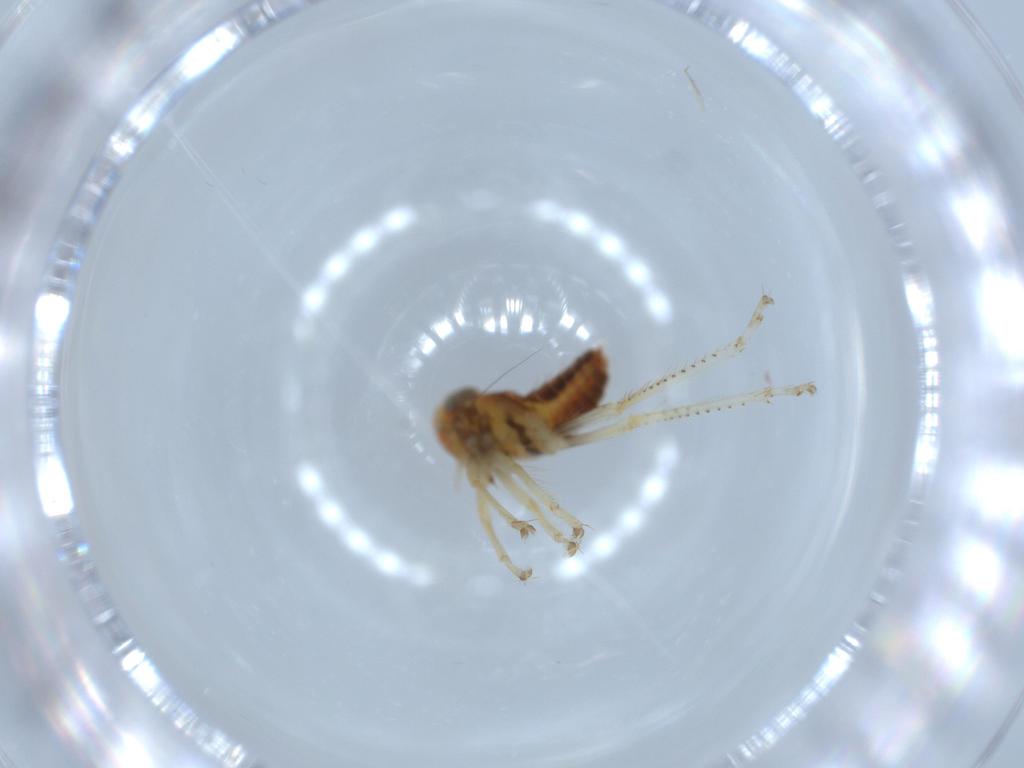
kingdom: Animalia
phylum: Arthropoda
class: Insecta
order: Hemiptera
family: Cicadellidae
